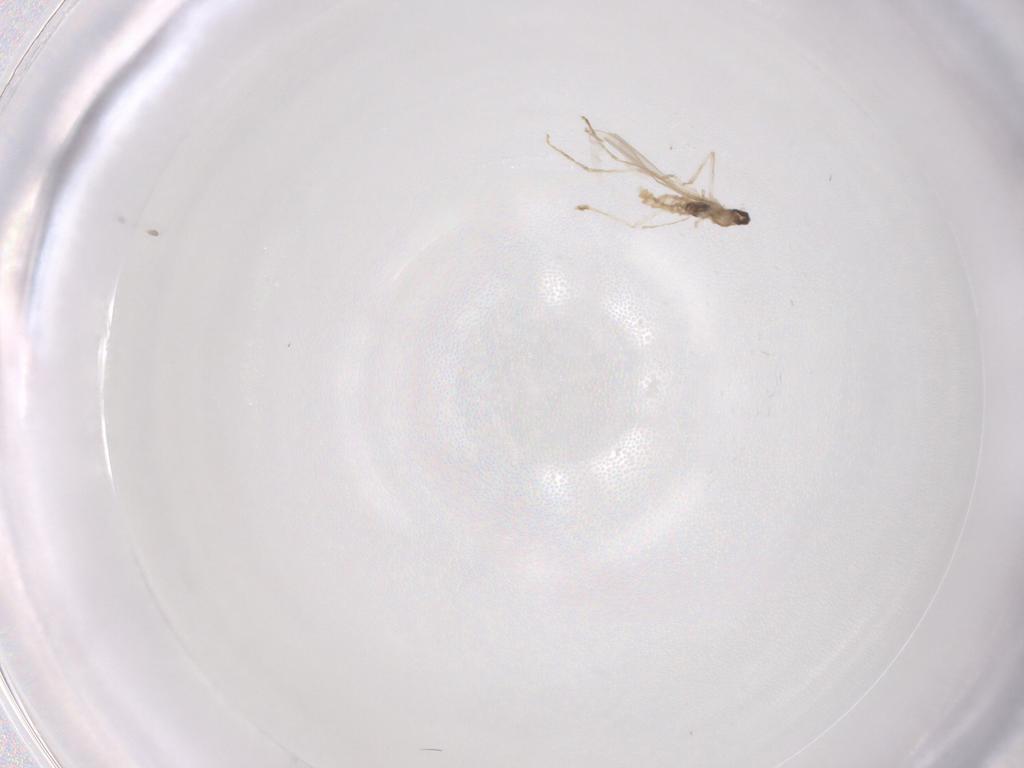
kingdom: Animalia
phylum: Arthropoda
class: Insecta
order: Diptera
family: Cecidomyiidae
